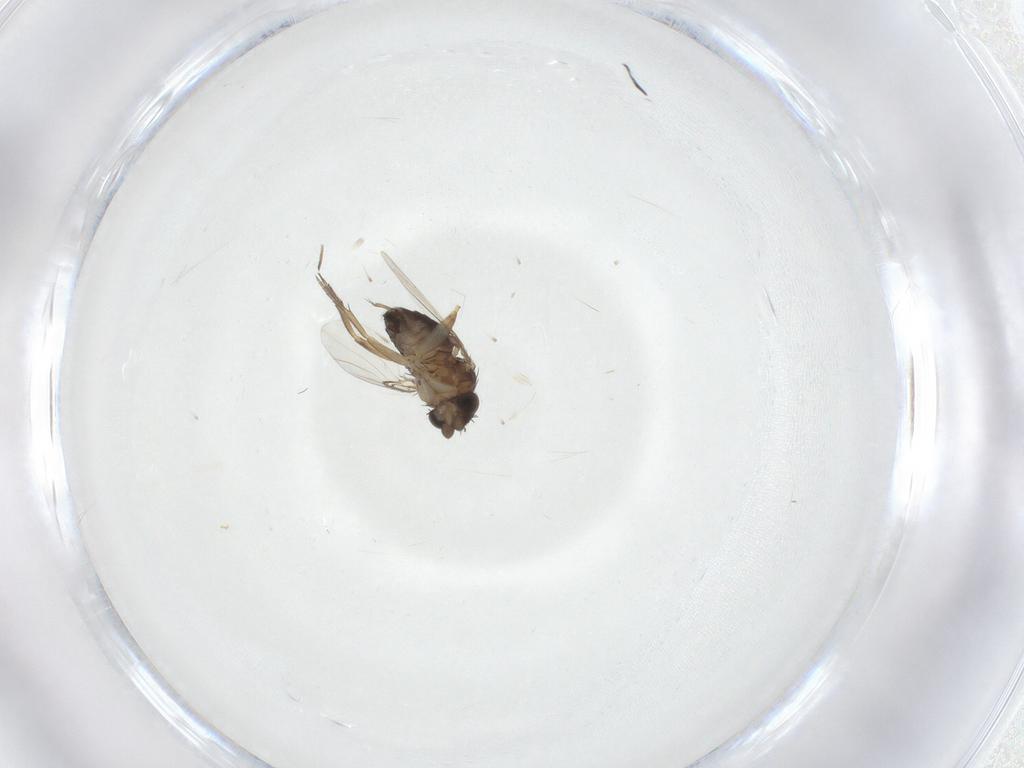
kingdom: Animalia
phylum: Arthropoda
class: Insecta
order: Diptera
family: Phoridae
